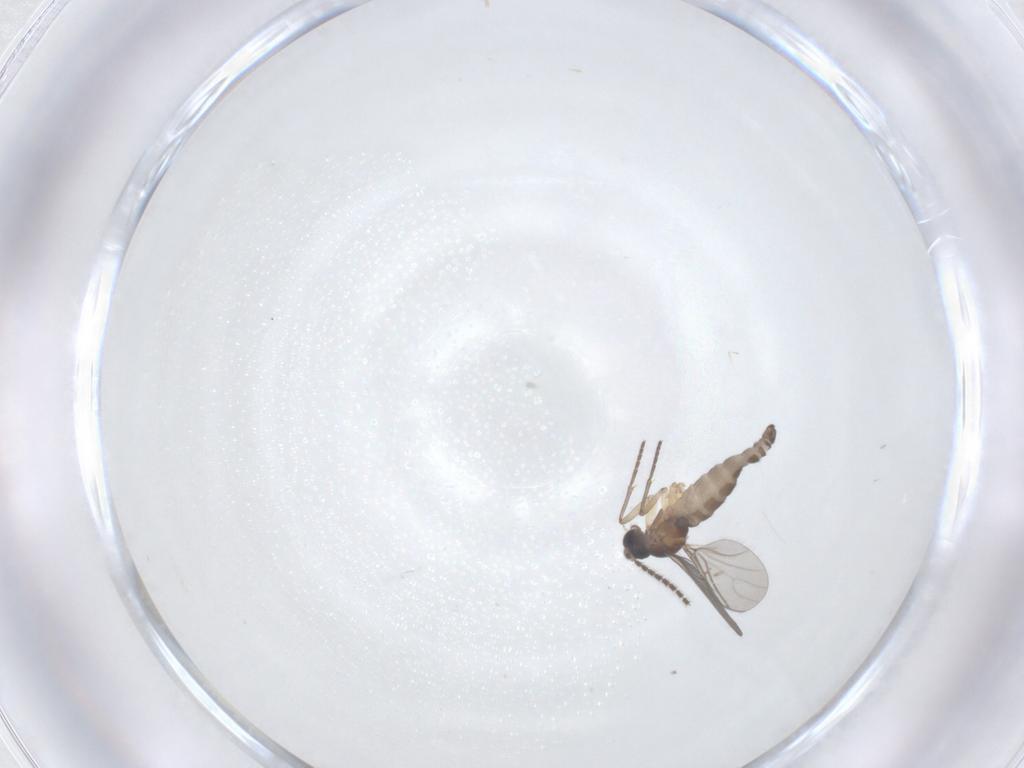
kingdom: Animalia
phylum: Arthropoda
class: Insecta
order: Diptera
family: Sciaridae
